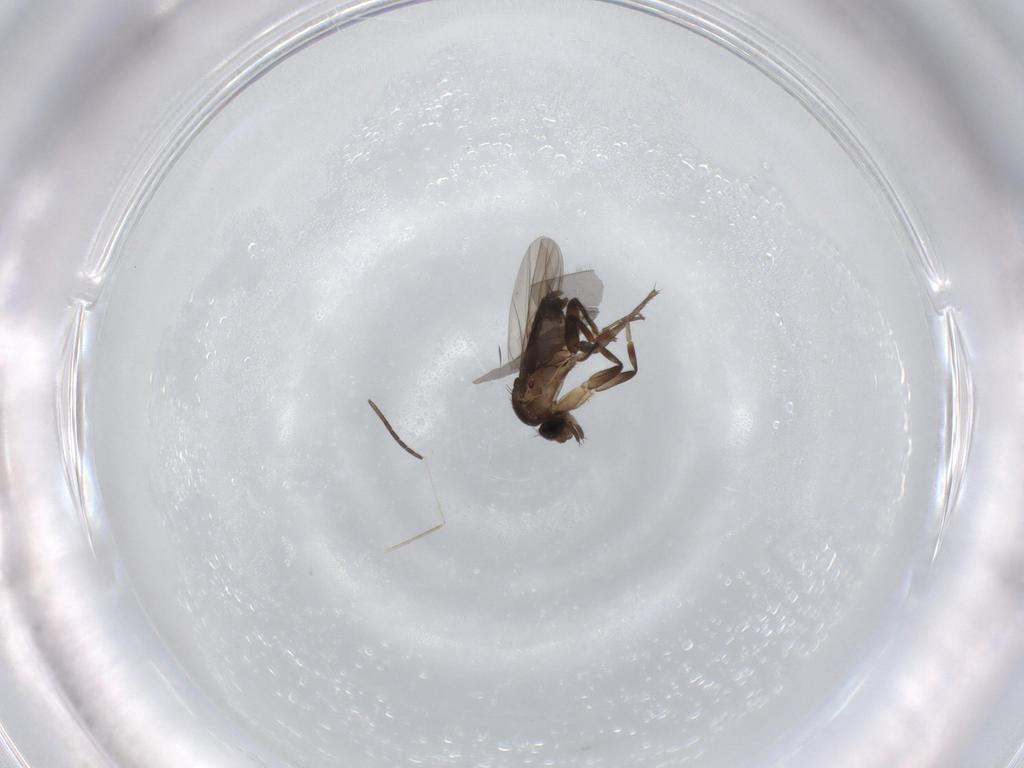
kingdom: Animalia
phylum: Arthropoda
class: Insecta
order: Diptera
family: Phoridae
